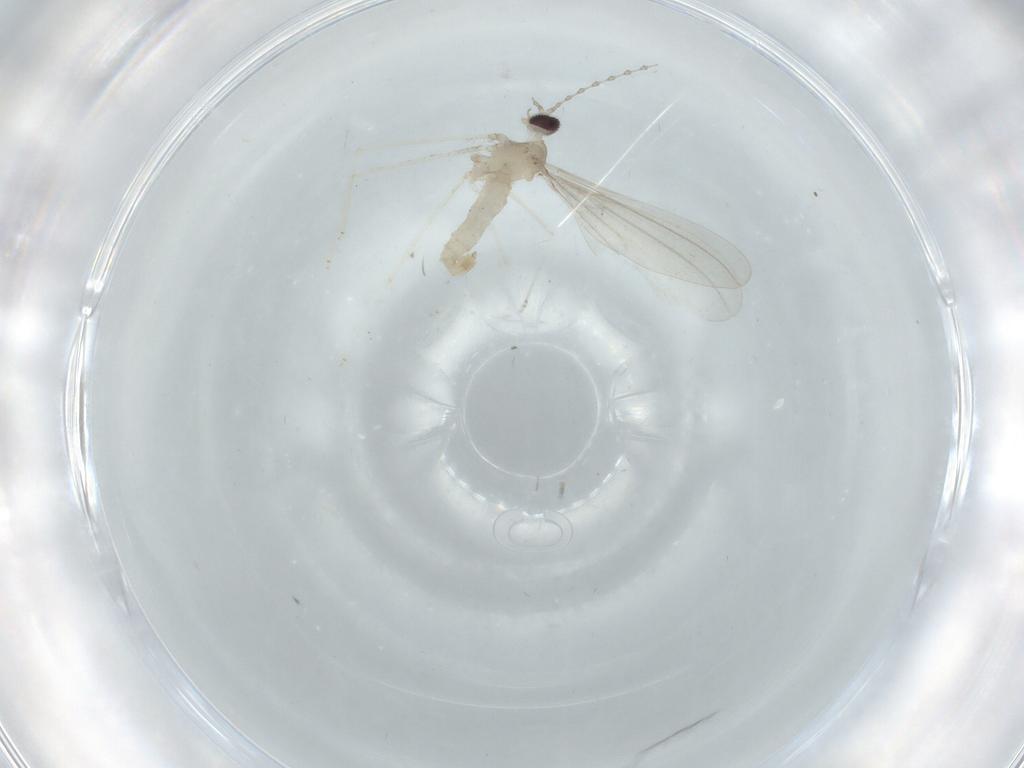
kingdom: Animalia
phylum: Arthropoda
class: Insecta
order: Diptera
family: Cecidomyiidae
